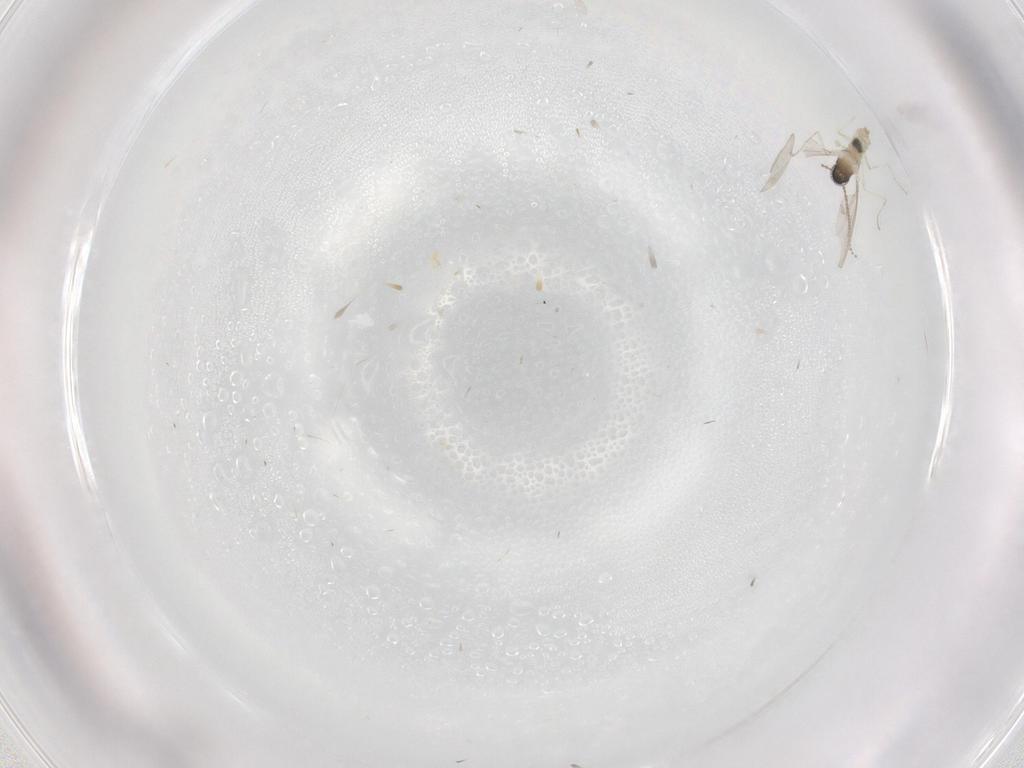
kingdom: Animalia
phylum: Arthropoda
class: Insecta
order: Diptera
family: Cecidomyiidae
